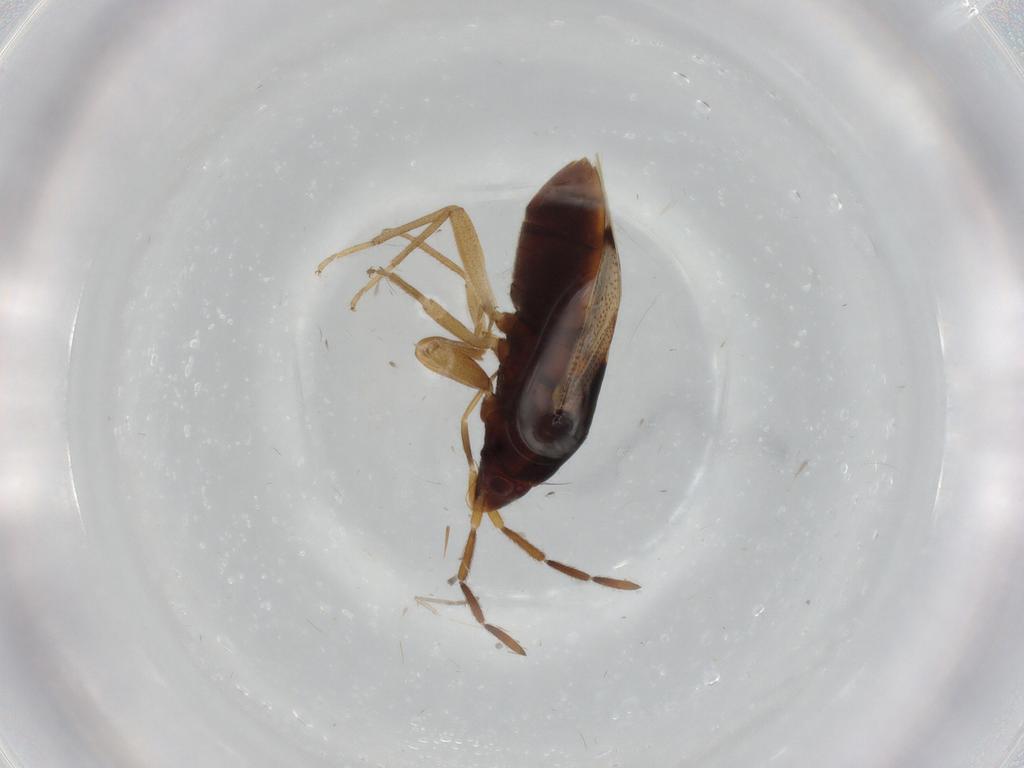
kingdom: Animalia
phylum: Arthropoda
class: Insecta
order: Hemiptera
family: Rhyparochromidae
